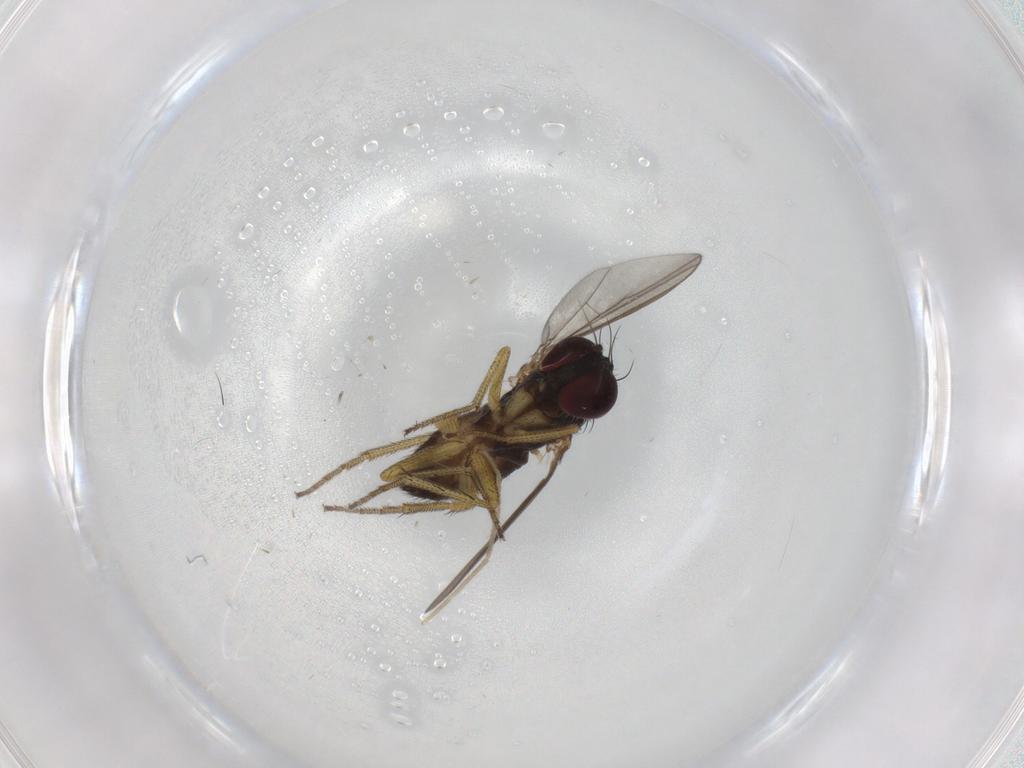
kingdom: Animalia
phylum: Arthropoda
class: Insecta
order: Diptera
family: Chironomidae
